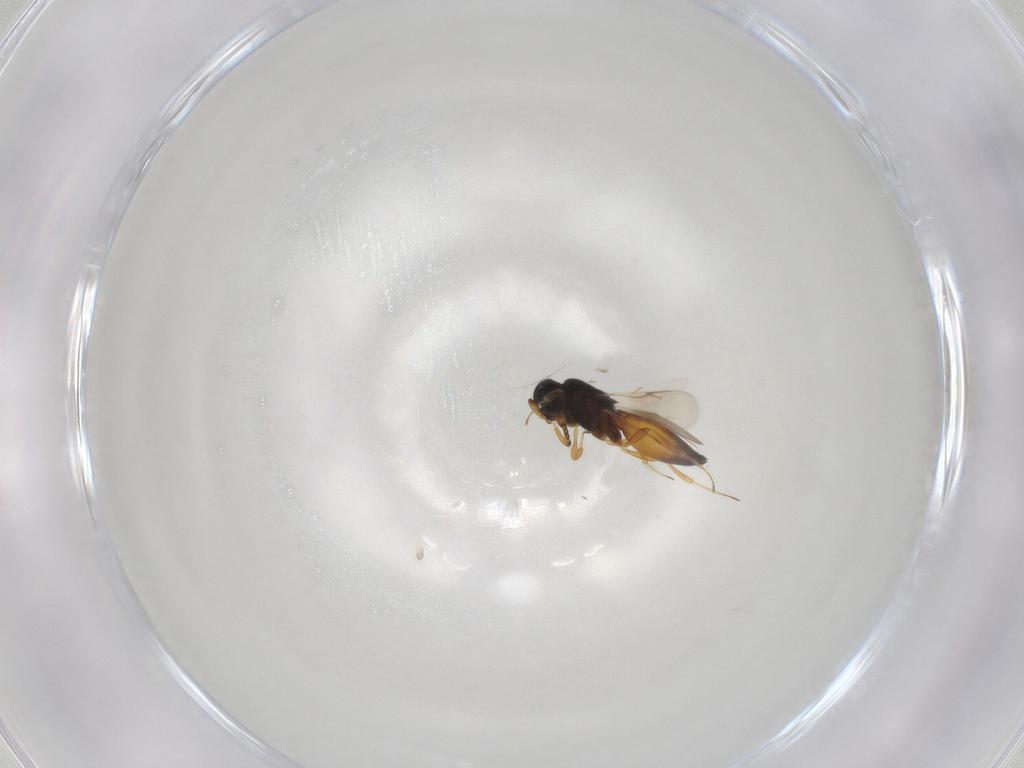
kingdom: Animalia
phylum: Arthropoda
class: Insecta
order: Hymenoptera
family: Scelionidae
